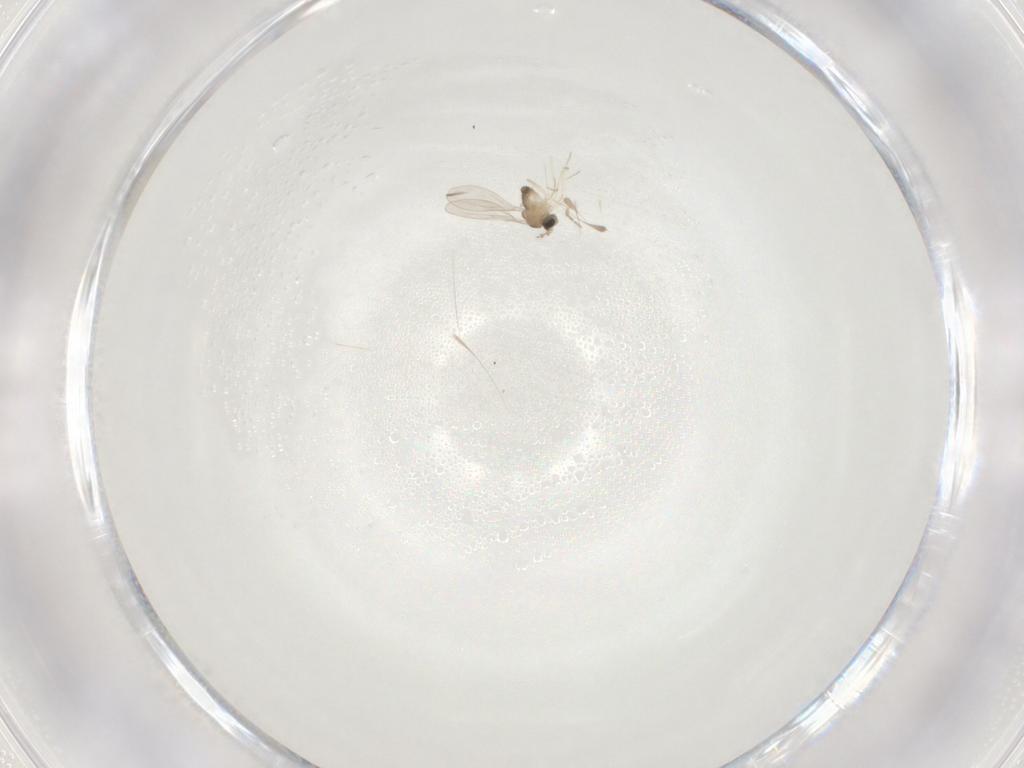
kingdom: Animalia
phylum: Arthropoda
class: Insecta
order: Diptera
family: Cecidomyiidae
